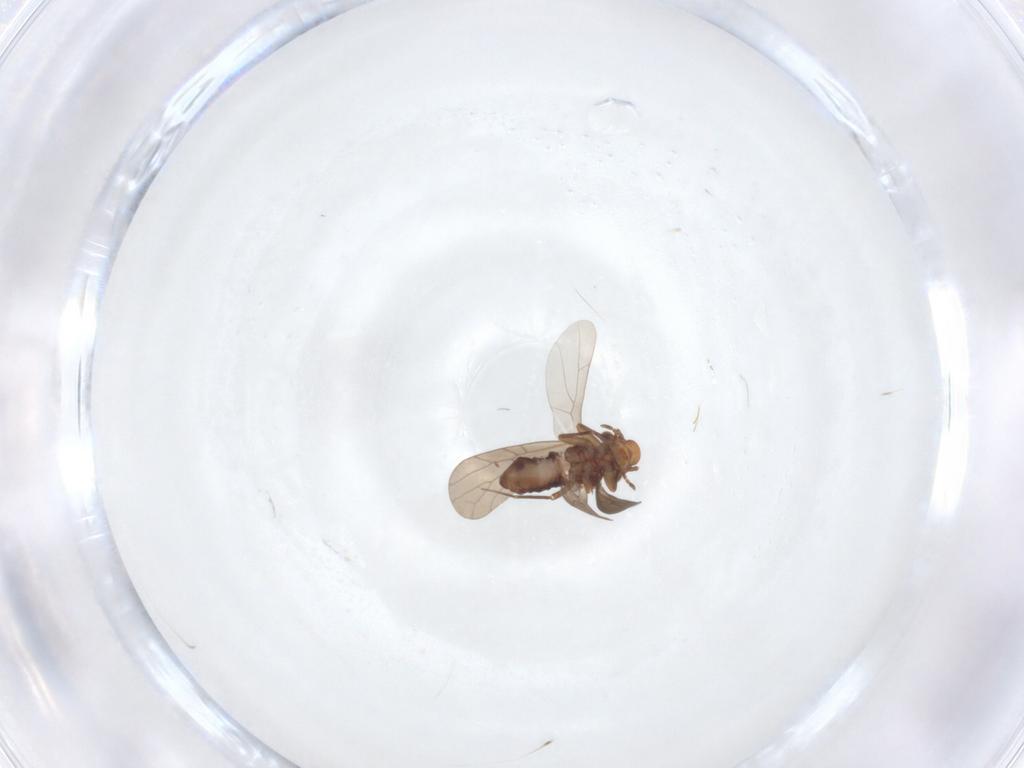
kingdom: Animalia
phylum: Arthropoda
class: Insecta
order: Psocodea
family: Lepidopsocidae
